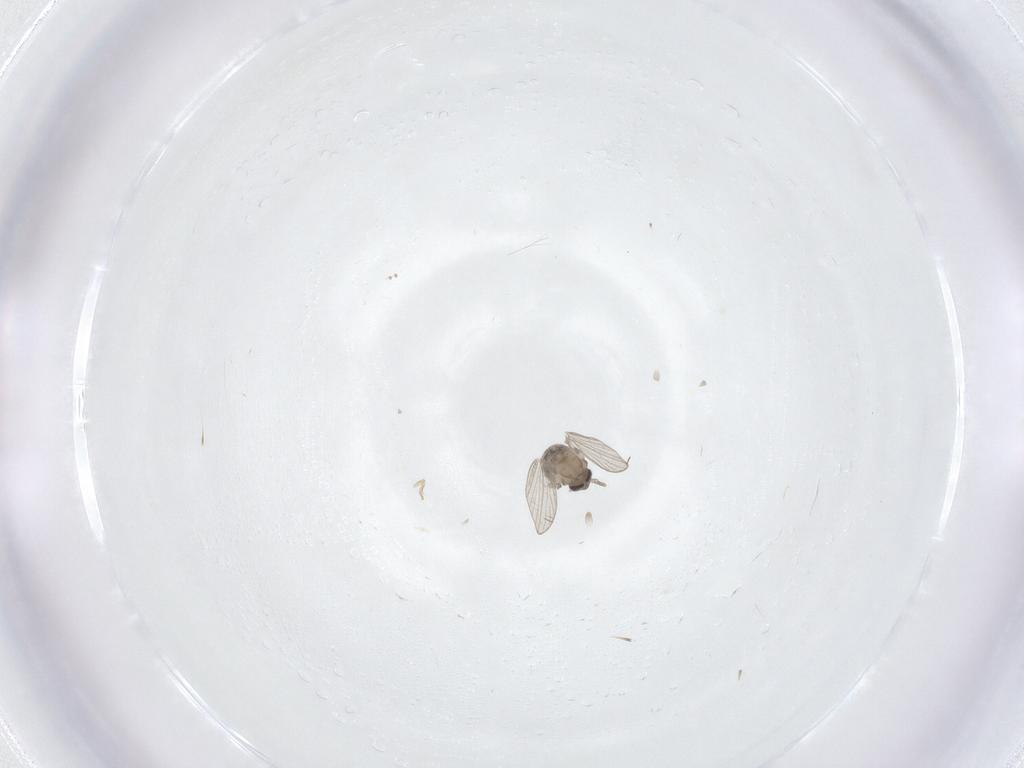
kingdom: Animalia
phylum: Arthropoda
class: Insecta
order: Diptera
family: Psychodidae
